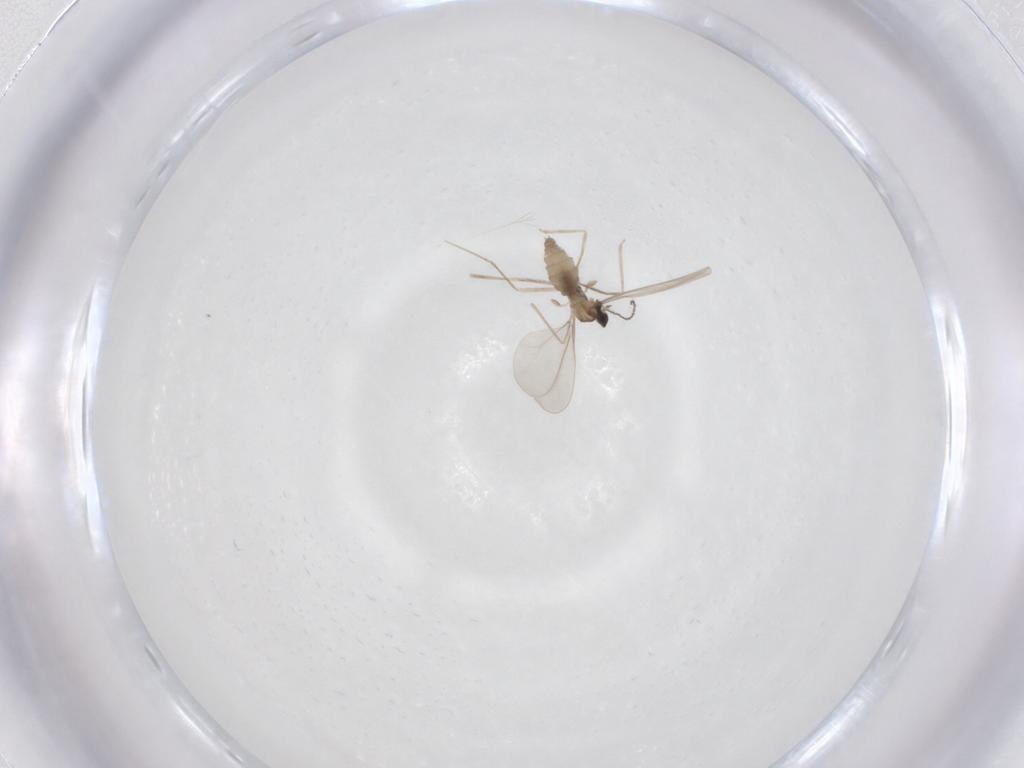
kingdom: Animalia
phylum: Arthropoda
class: Insecta
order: Diptera
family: Cecidomyiidae
